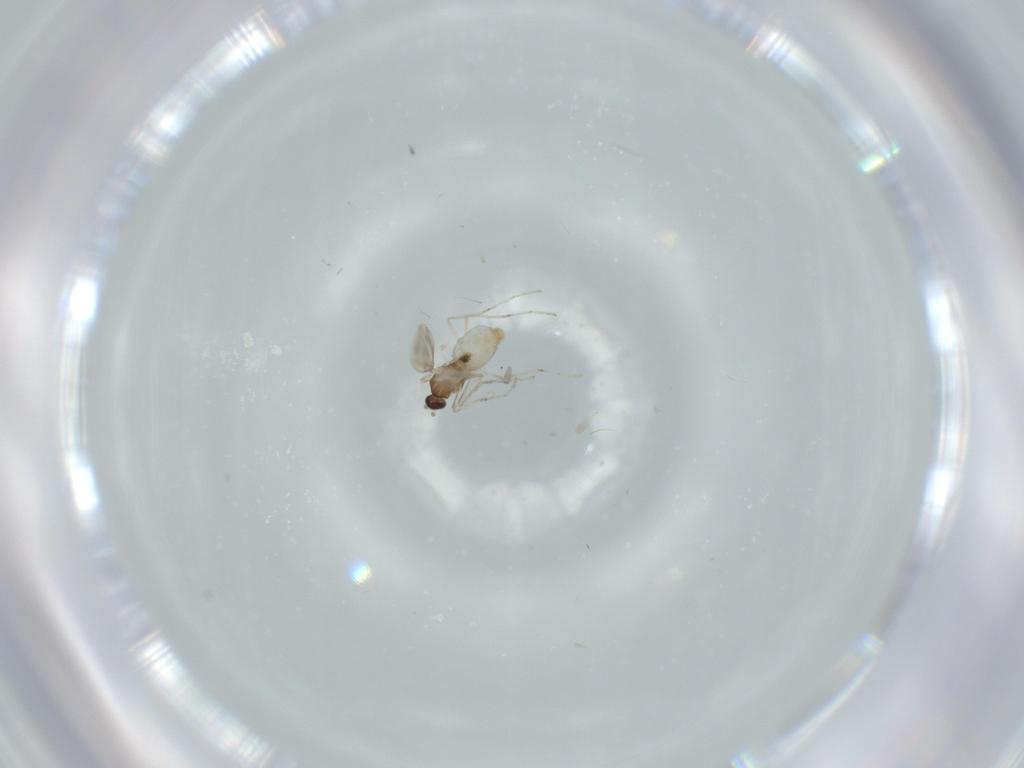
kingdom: Animalia
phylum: Arthropoda
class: Insecta
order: Diptera
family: Cecidomyiidae
